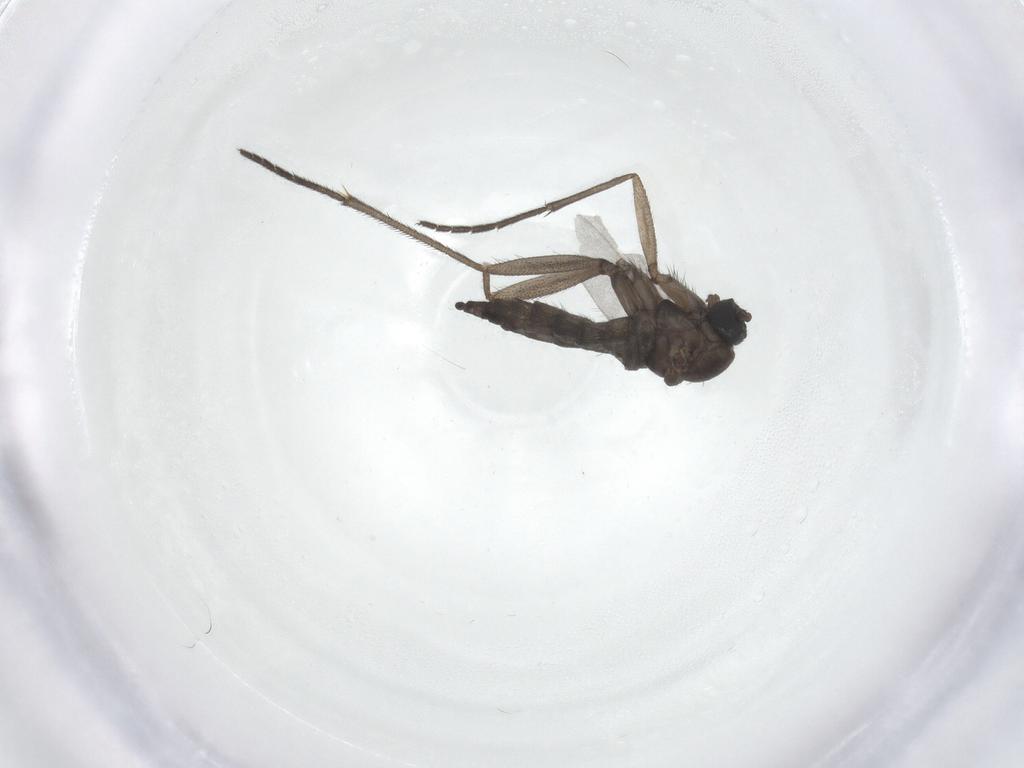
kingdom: Animalia
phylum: Arthropoda
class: Insecta
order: Diptera
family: Sciaridae
